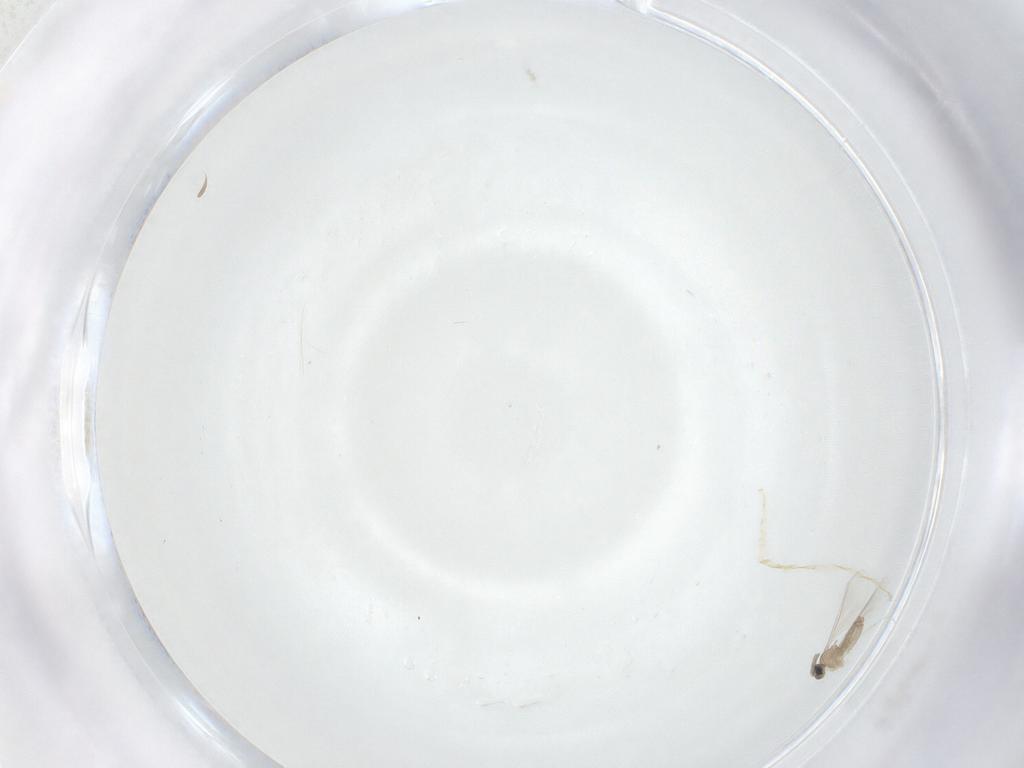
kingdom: Animalia
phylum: Arthropoda
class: Insecta
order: Diptera
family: Cecidomyiidae
